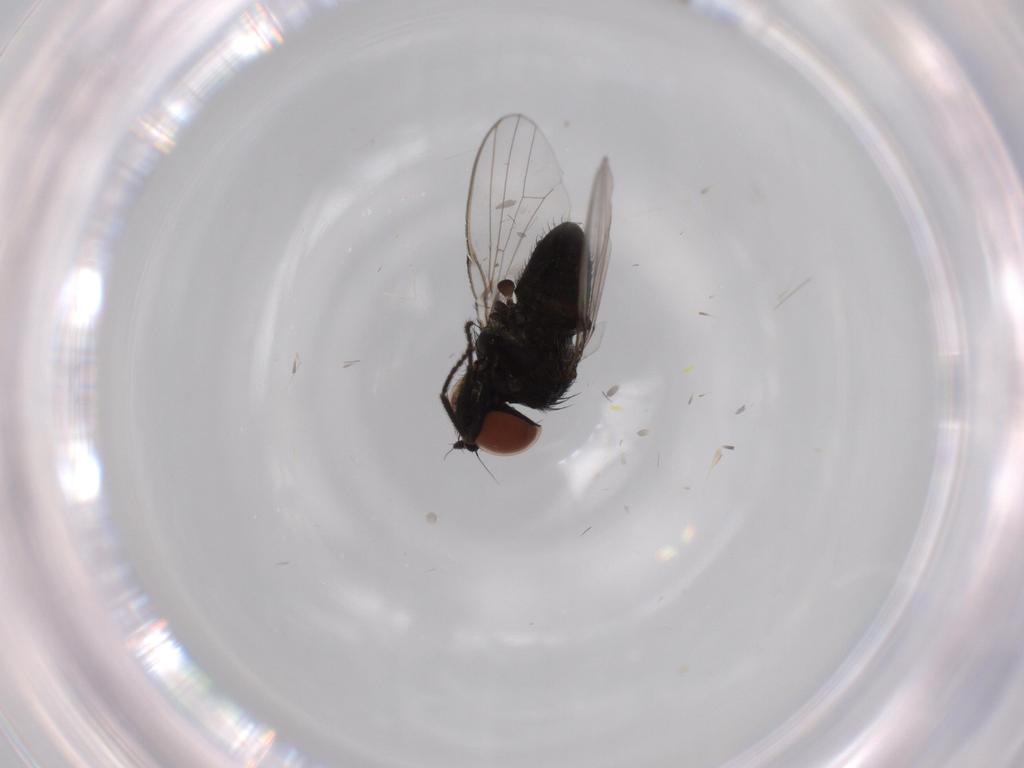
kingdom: Animalia
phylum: Arthropoda
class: Insecta
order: Diptera
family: Milichiidae
